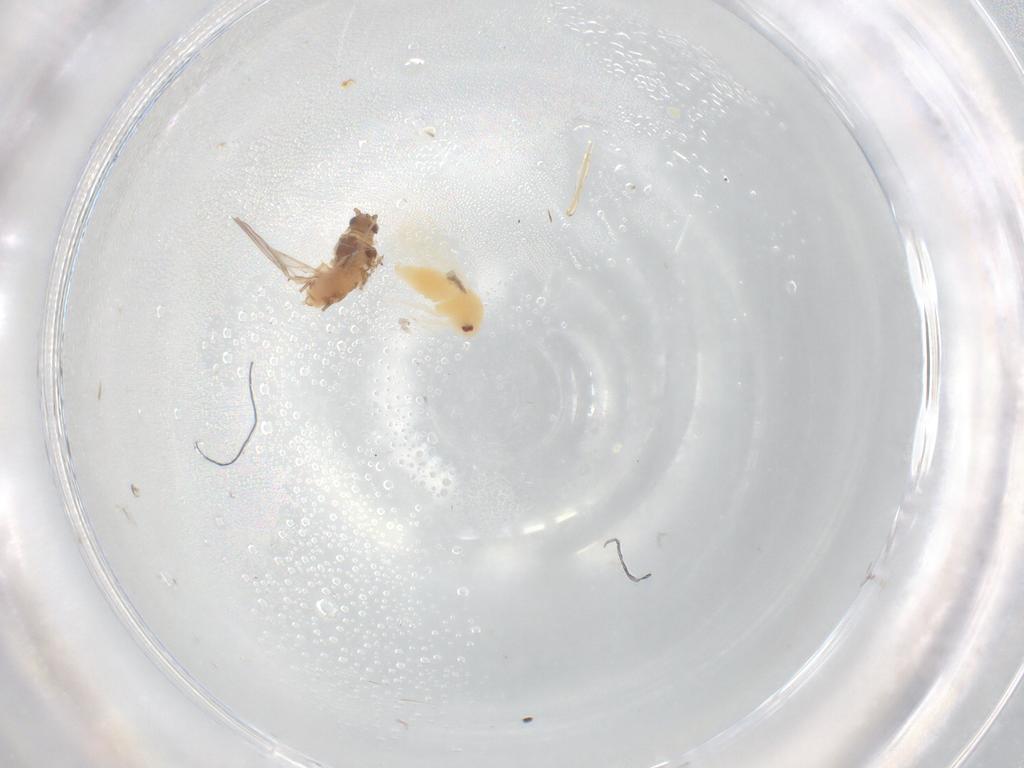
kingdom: Animalia
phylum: Arthropoda
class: Insecta
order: Hemiptera
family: Aphididae
